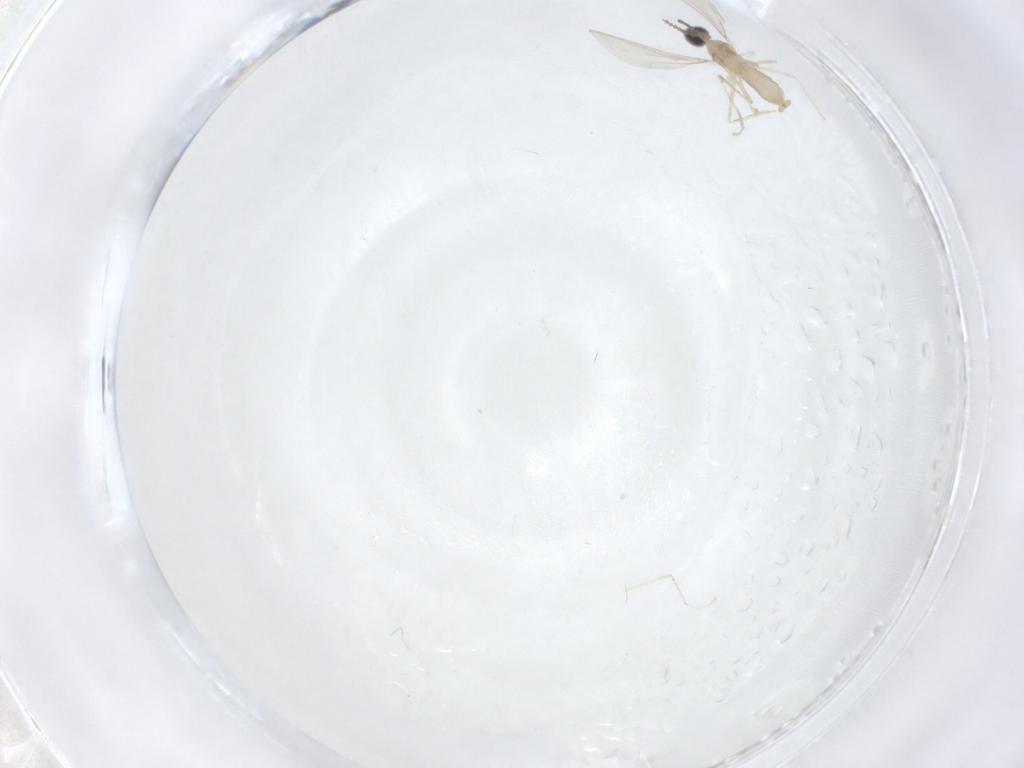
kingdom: Animalia
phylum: Arthropoda
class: Insecta
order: Diptera
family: Cecidomyiidae
